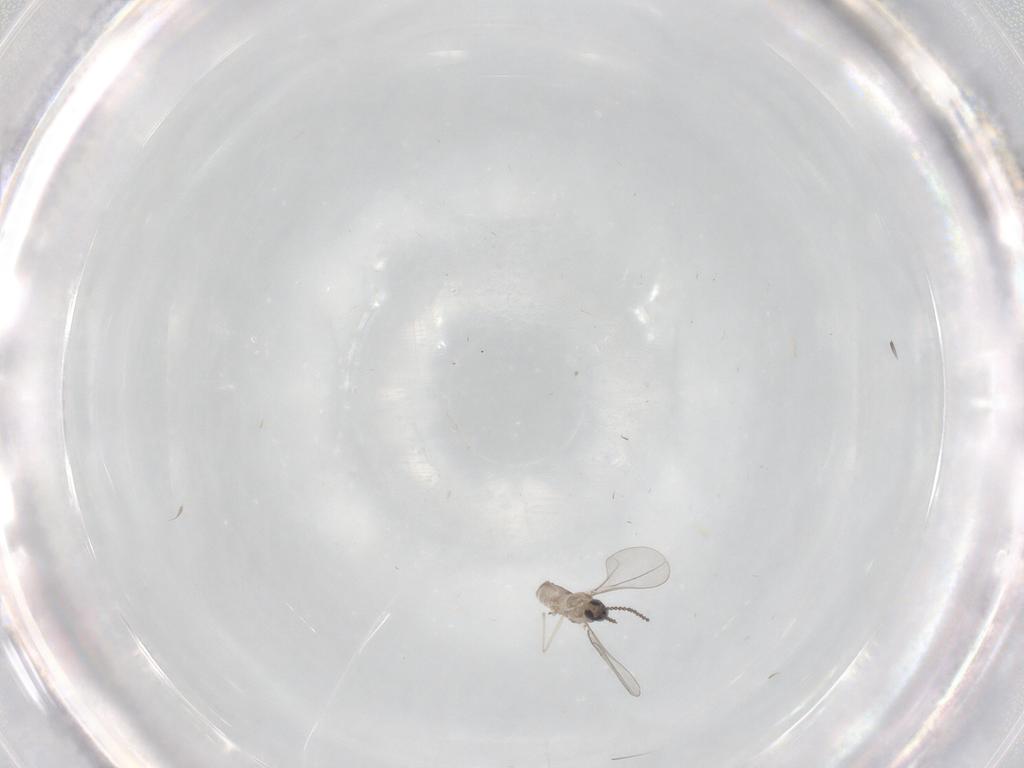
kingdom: Animalia
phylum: Arthropoda
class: Insecta
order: Diptera
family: Cecidomyiidae
